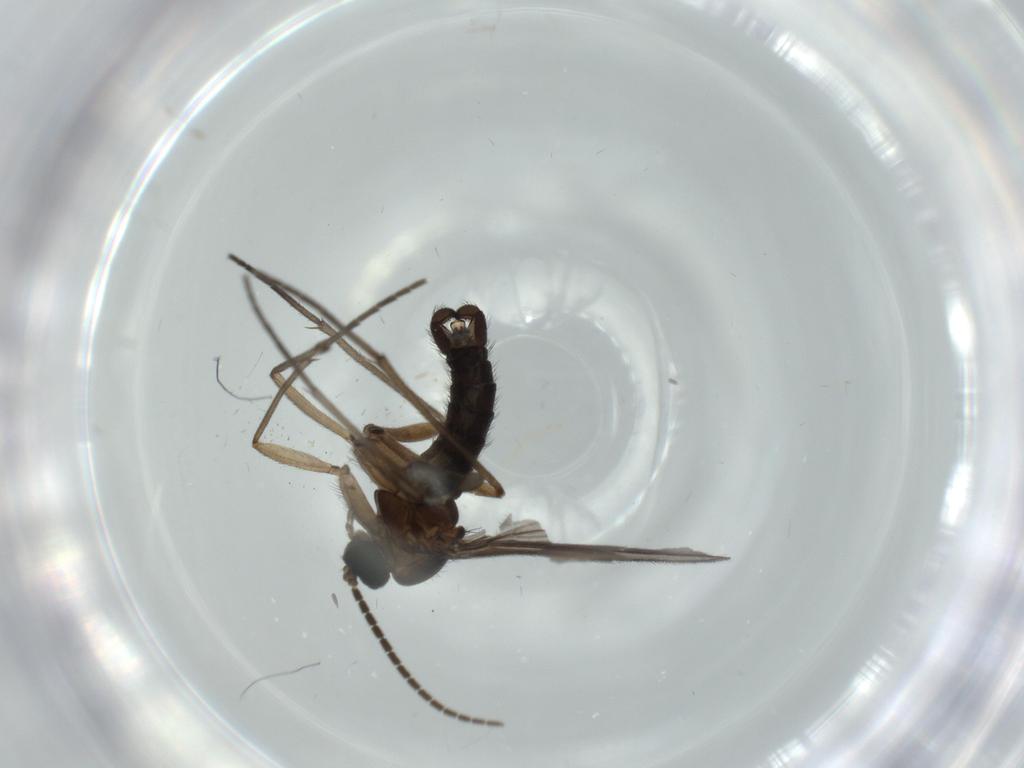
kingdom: Animalia
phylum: Arthropoda
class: Insecta
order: Diptera
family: Sciaridae
